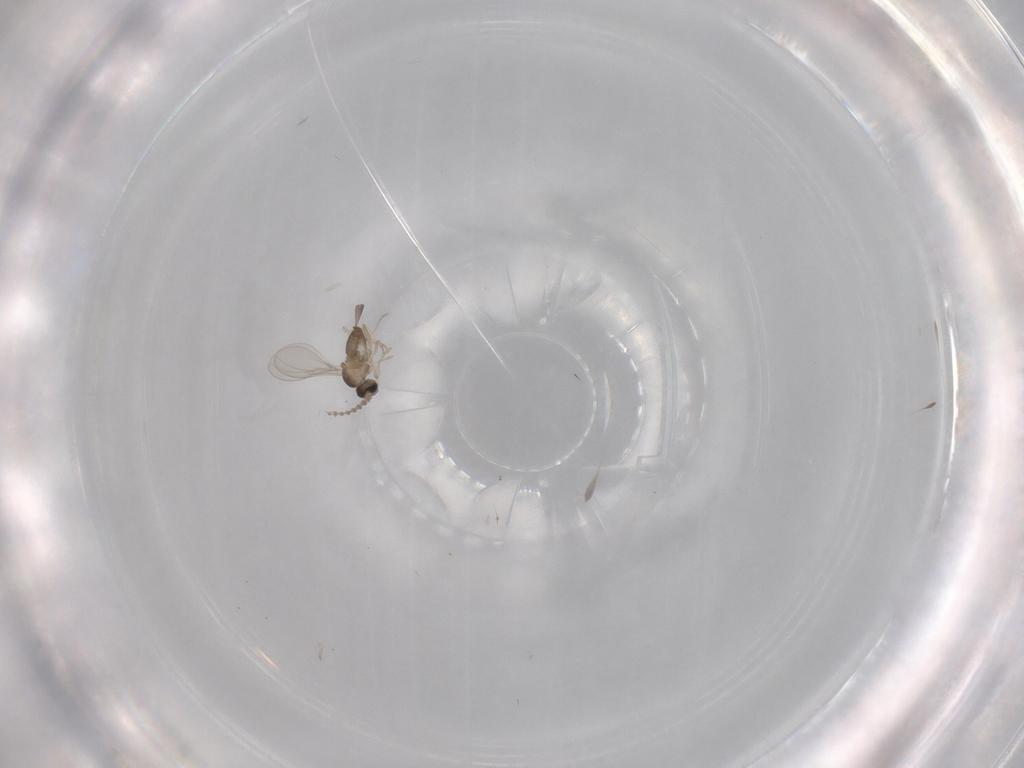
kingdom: Animalia
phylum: Arthropoda
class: Insecta
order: Diptera
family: Cecidomyiidae
